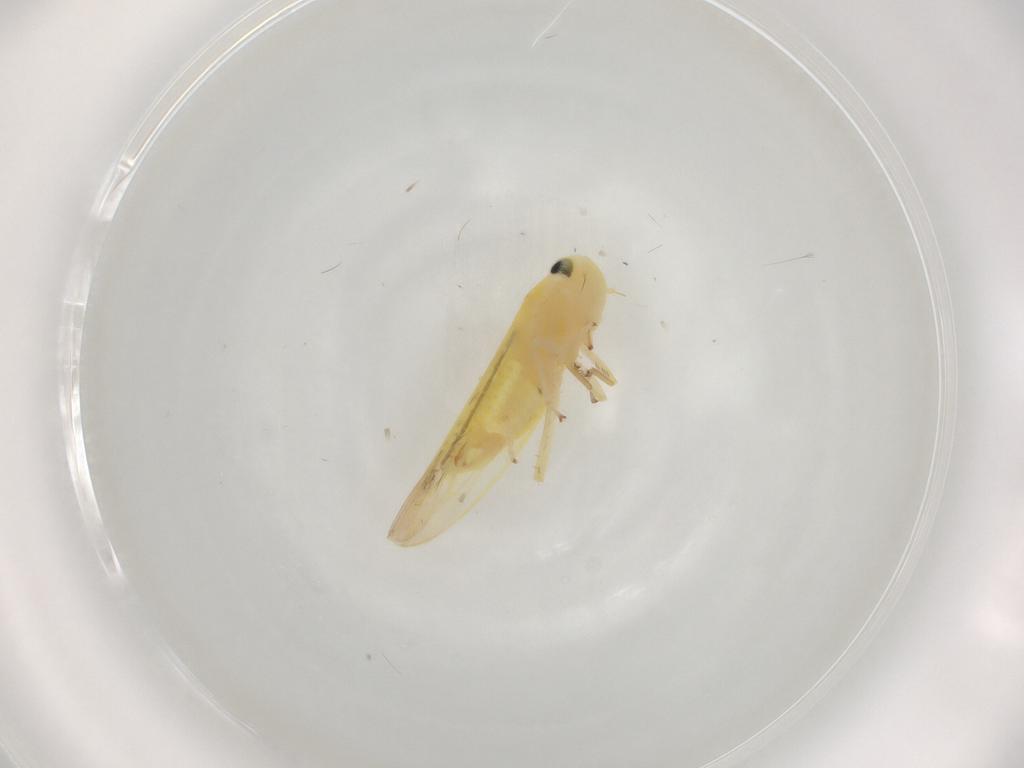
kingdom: Animalia
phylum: Arthropoda
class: Insecta
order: Hemiptera
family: Cicadellidae
